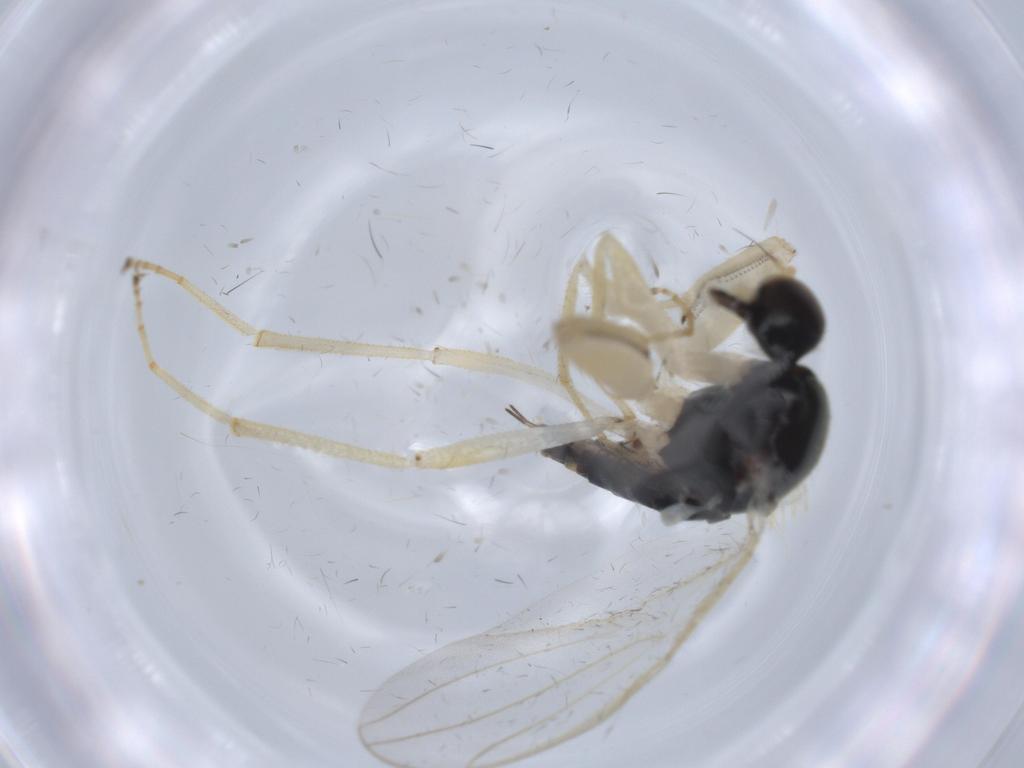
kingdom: Animalia
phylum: Arthropoda
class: Insecta
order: Diptera
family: Hybotidae
